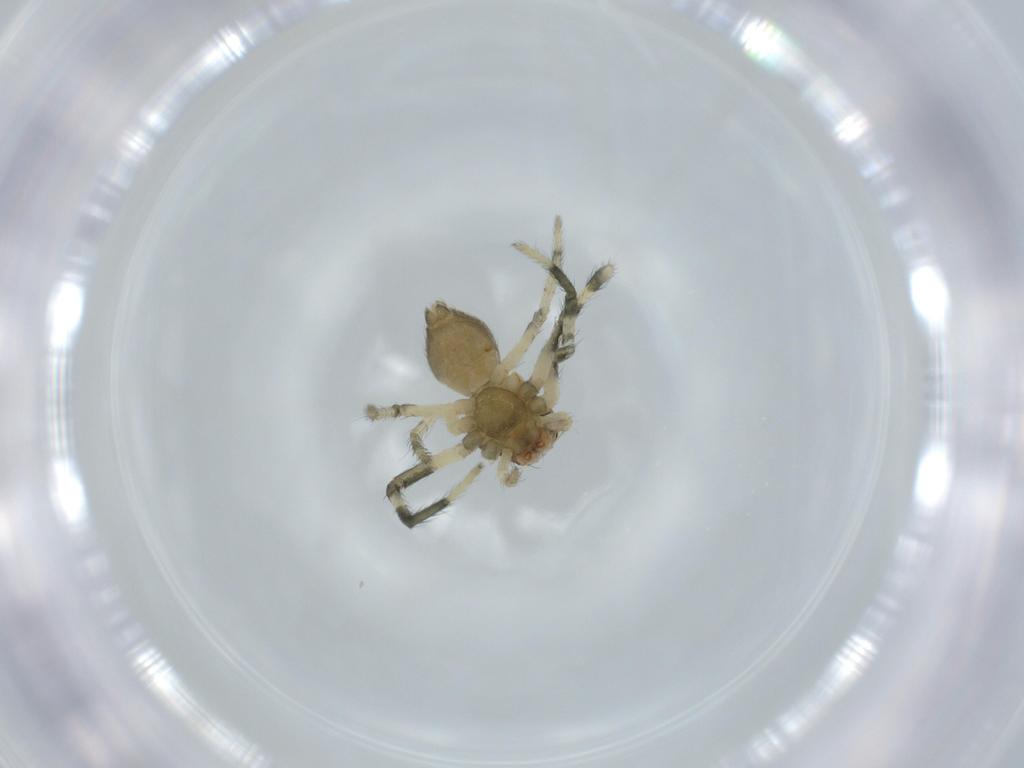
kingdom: Animalia
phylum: Arthropoda
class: Arachnida
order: Araneae
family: Thomisidae
